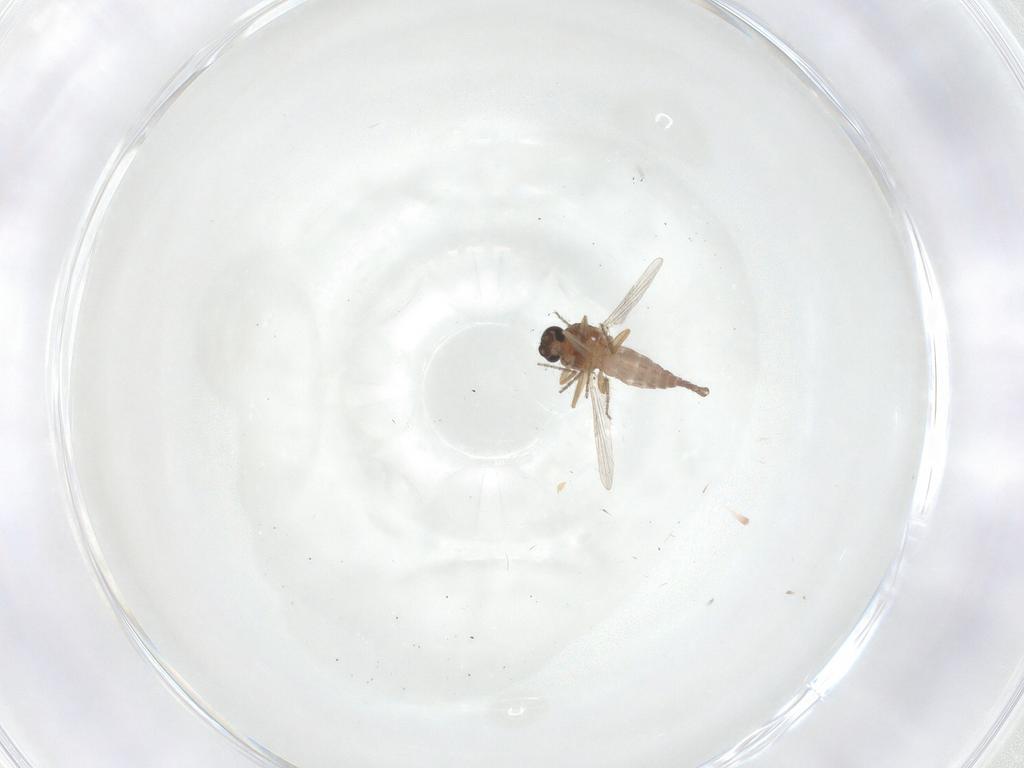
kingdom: Animalia
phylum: Arthropoda
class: Insecta
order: Diptera
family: Ceratopogonidae
